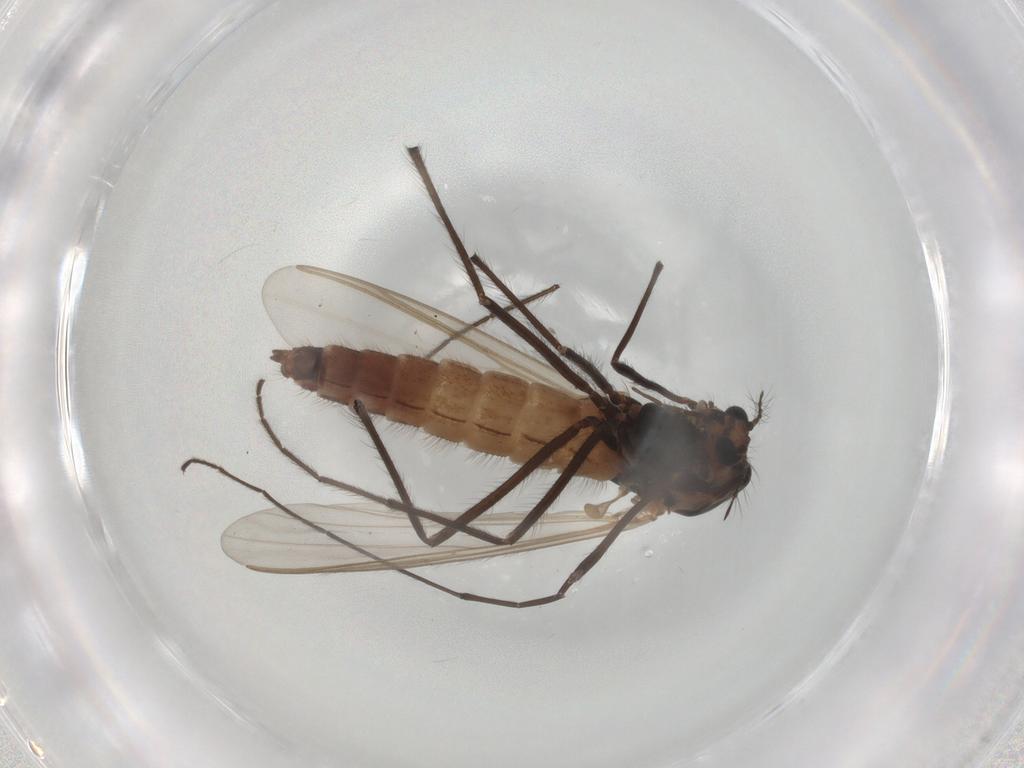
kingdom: Animalia
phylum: Arthropoda
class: Insecta
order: Diptera
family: Chironomidae
